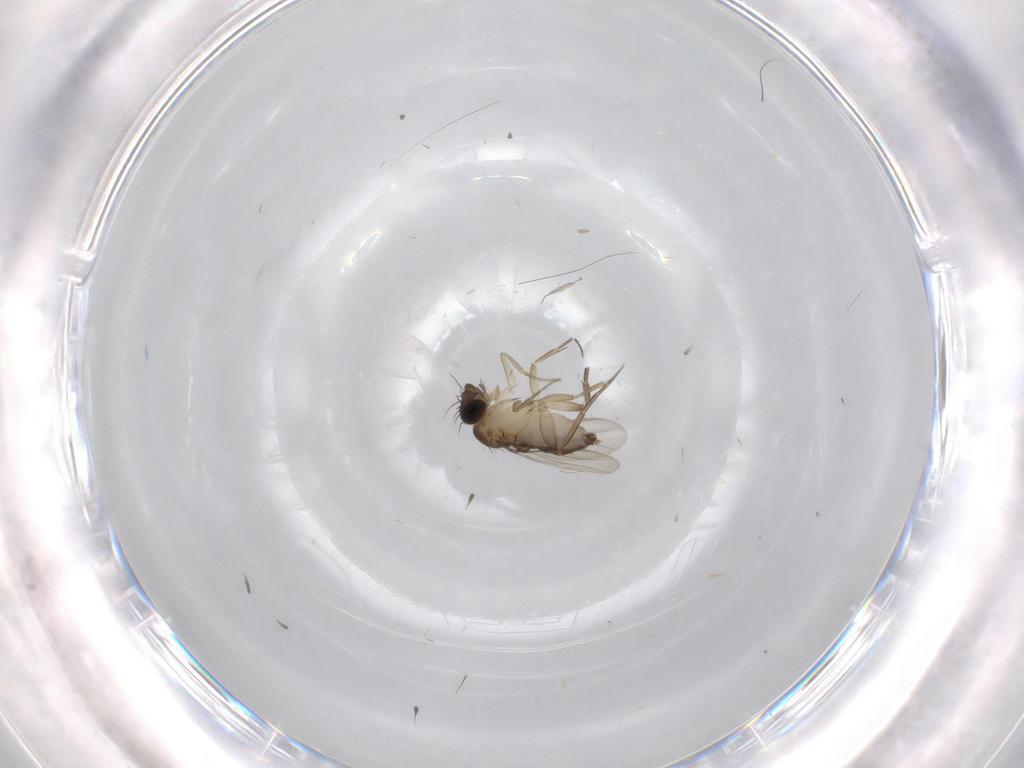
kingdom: Animalia
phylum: Arthropoda
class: Insecta
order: Diptera
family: Phoridae
